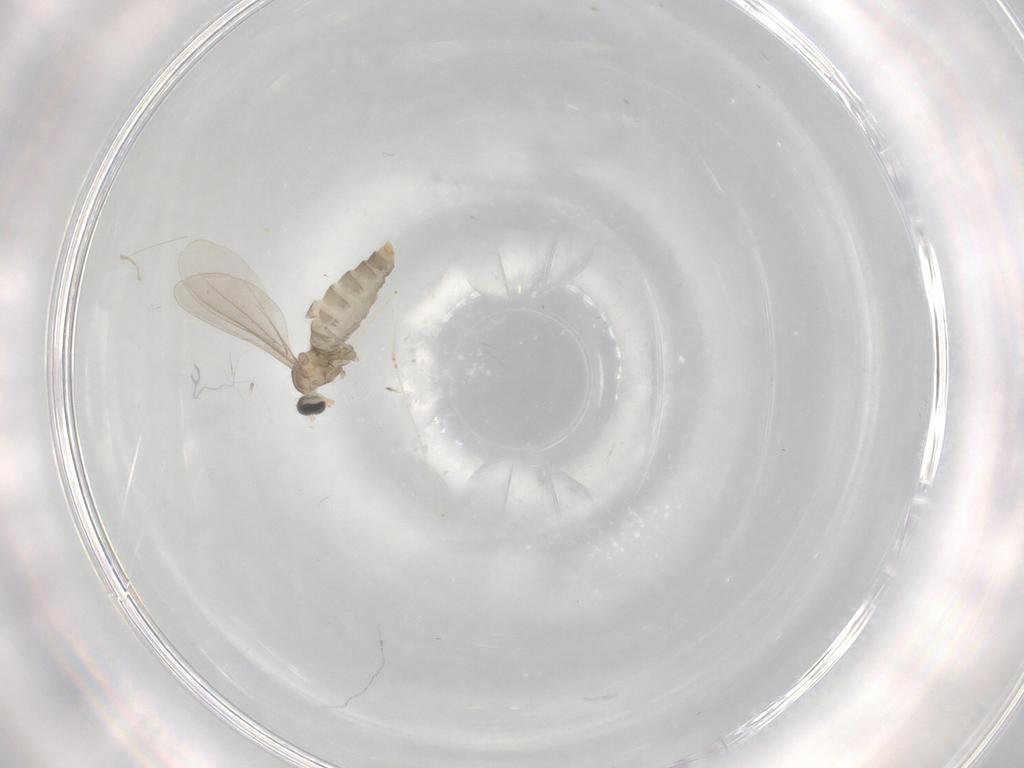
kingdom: Animalia
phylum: Arthropoda
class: Insecta
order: Diptera
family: Cecidomyiidae
